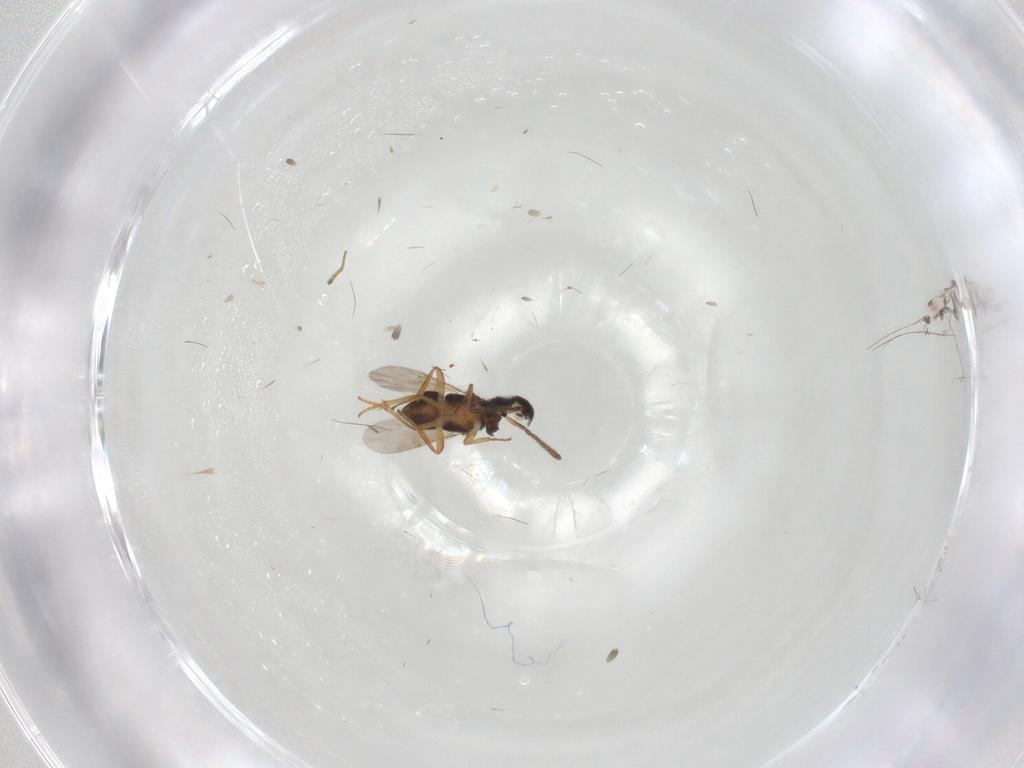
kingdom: Animalia
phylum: Arthropoda
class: Insecta
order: Hymenoptera
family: Encyrtidae
